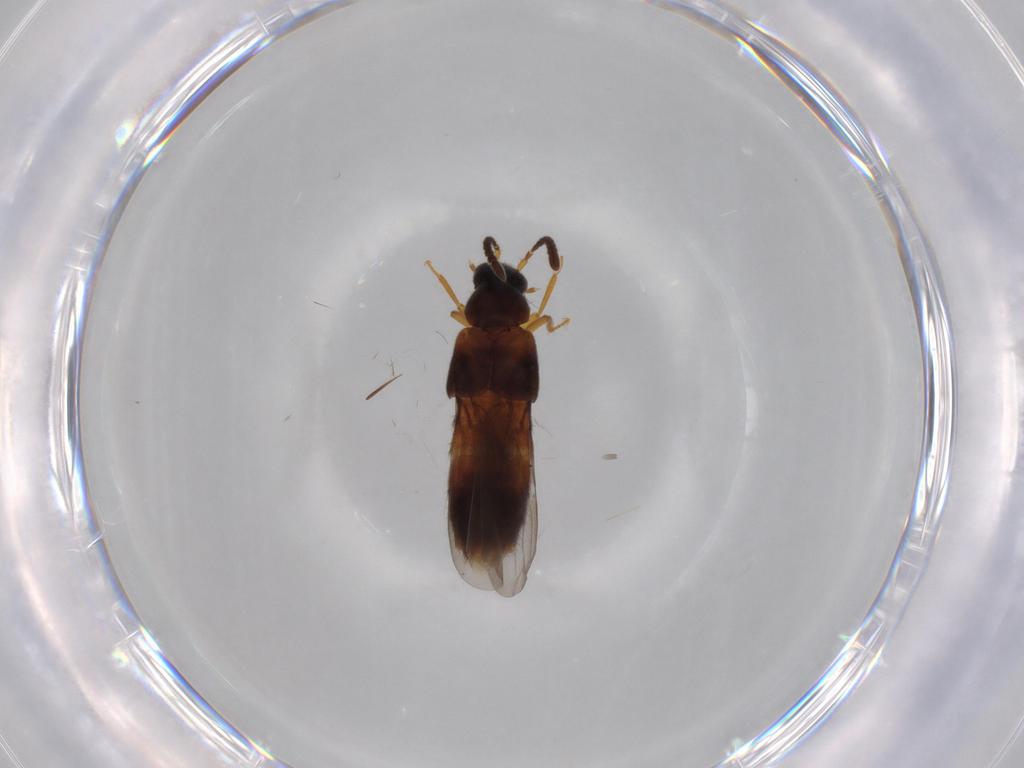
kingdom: Animalia
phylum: Arthropoda
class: Insecta
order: Coleoptera
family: Staphylinidae
